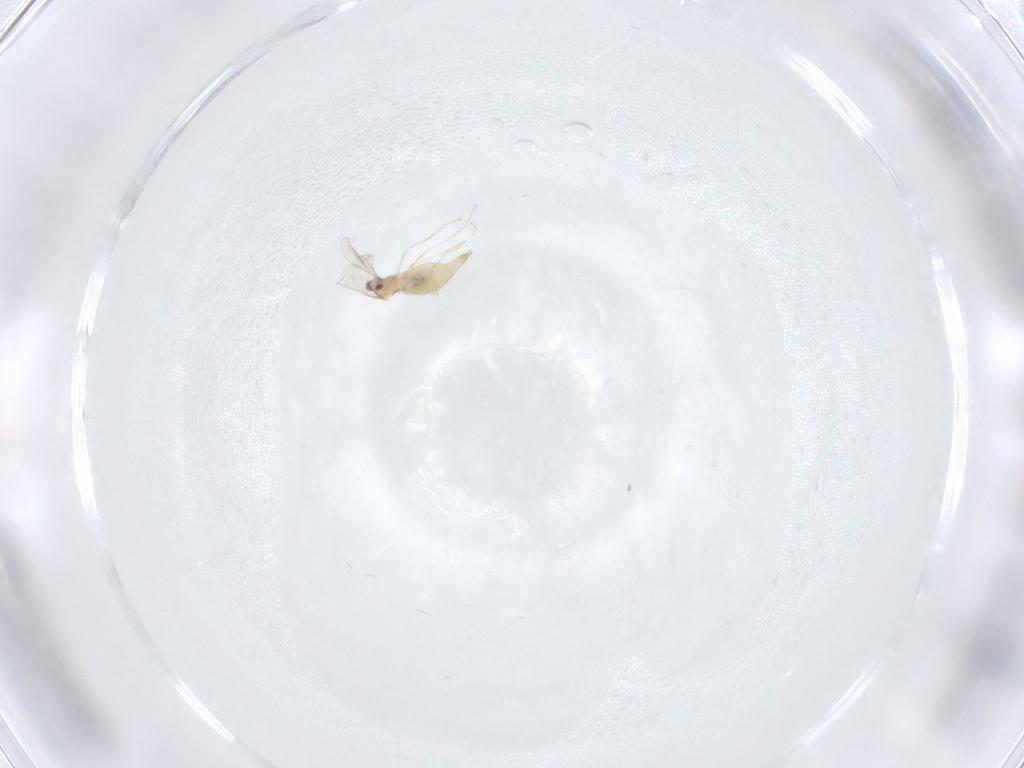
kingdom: Animalia
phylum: Arthropoda
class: Insecta
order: Diptera
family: Cecidomyiidae
